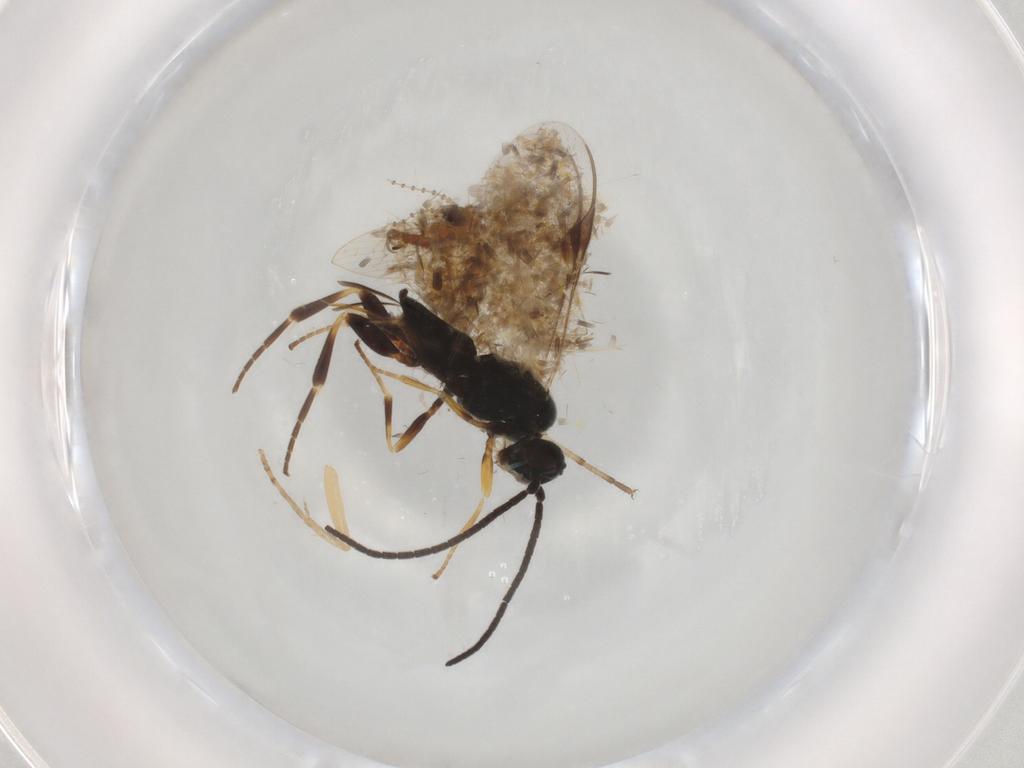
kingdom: Animalia
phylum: Arthropoda
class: Insecta
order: Hymenoptera
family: Braconidae
